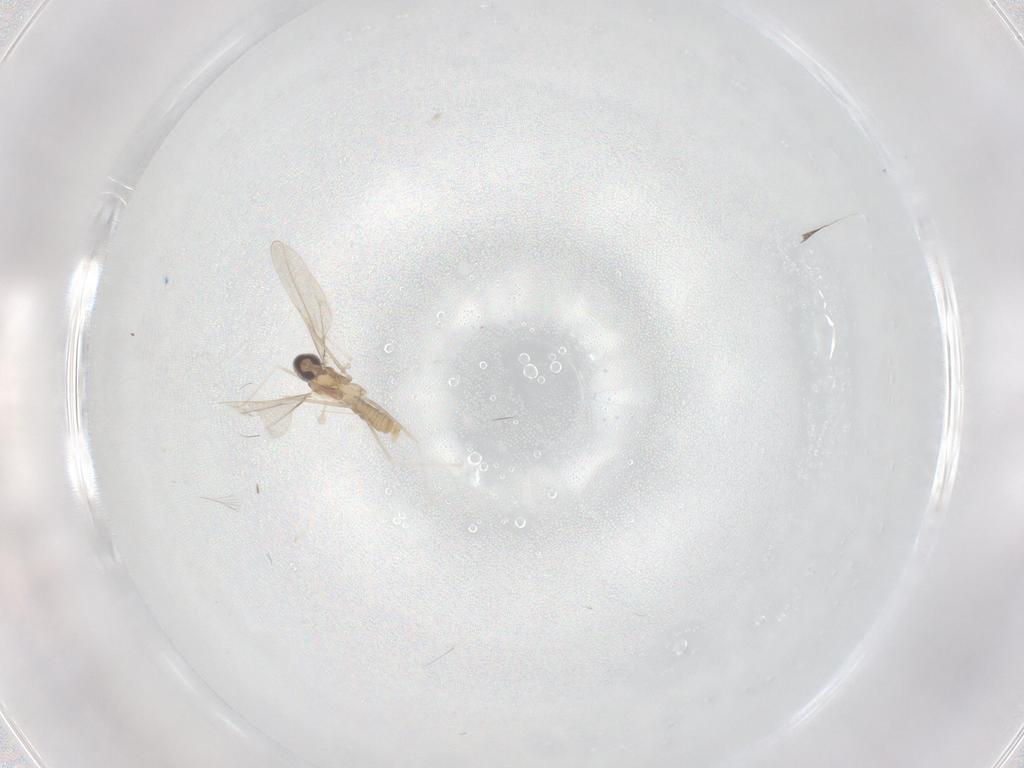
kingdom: Animalia
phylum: Arthropoda
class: Insecta
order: Diptera
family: Cecidomyiidae
